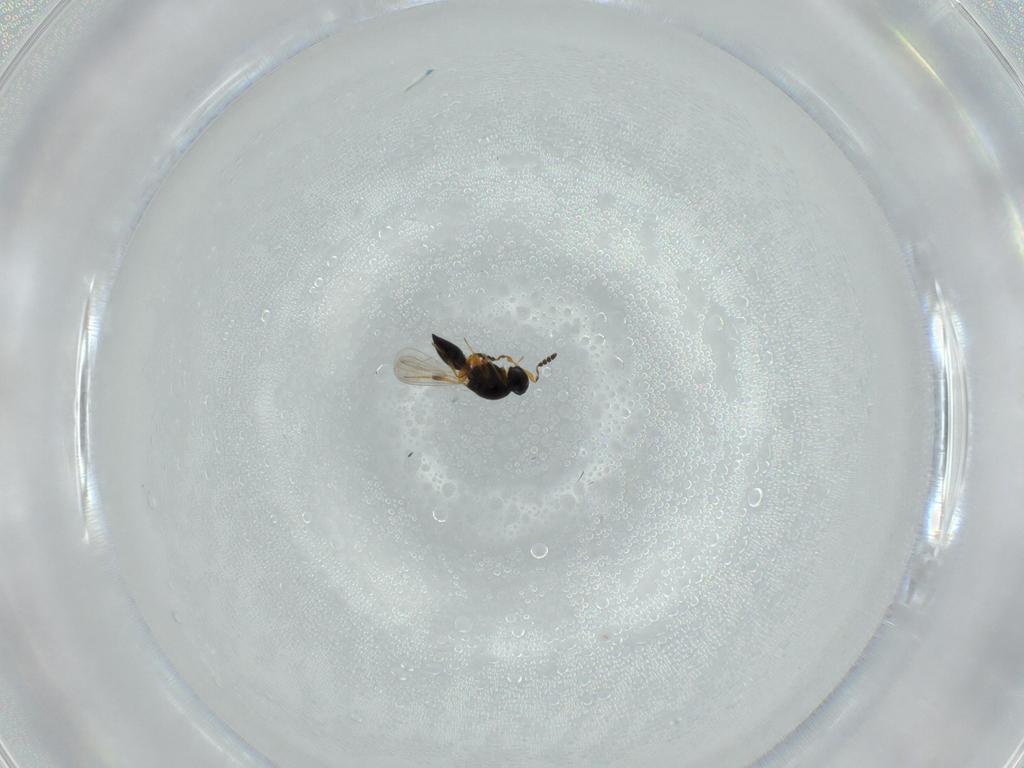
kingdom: Animalia
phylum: Arthropoda
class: Insecta
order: Hymenoptera
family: Platygastridae
